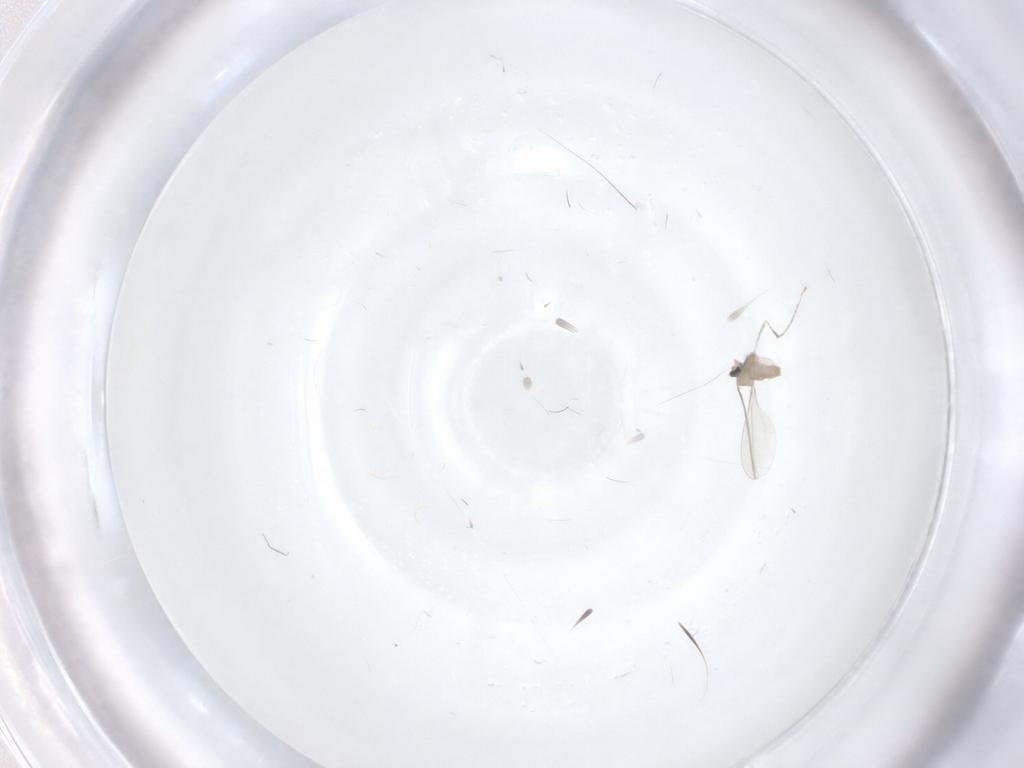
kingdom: Animalia
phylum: Arthropoda
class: Insecta
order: Diptera
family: Cecidomyiidae
